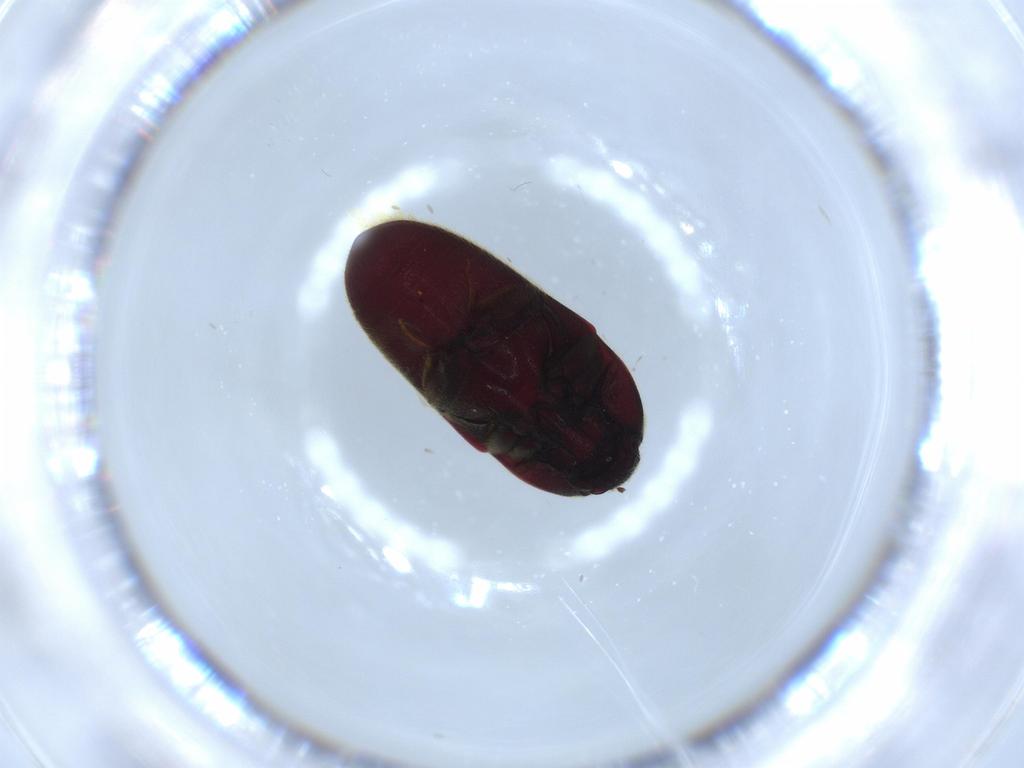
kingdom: Animalia
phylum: Arthropoda
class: Insecta
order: Coleoptera
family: Throscidae
